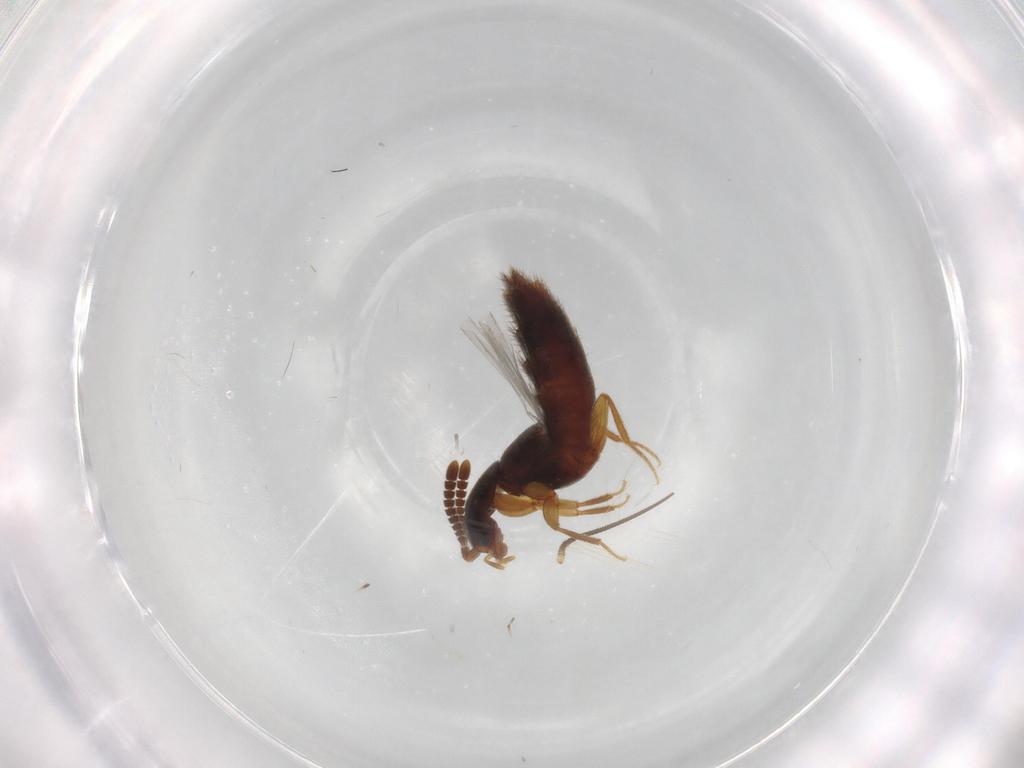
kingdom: Animalia
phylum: Arthropoda
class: Insecta
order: Coleoptera
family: Staphylinidae
